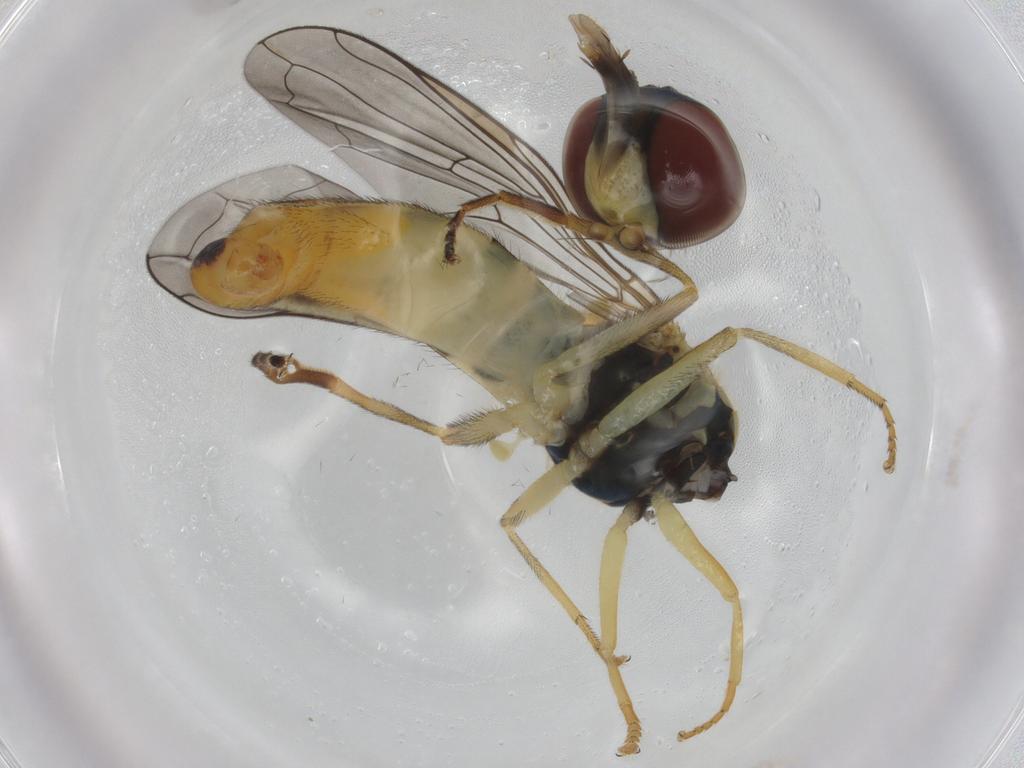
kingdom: Animalia
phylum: Arthropoda
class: Insecta
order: Diptera
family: Syrphidae
